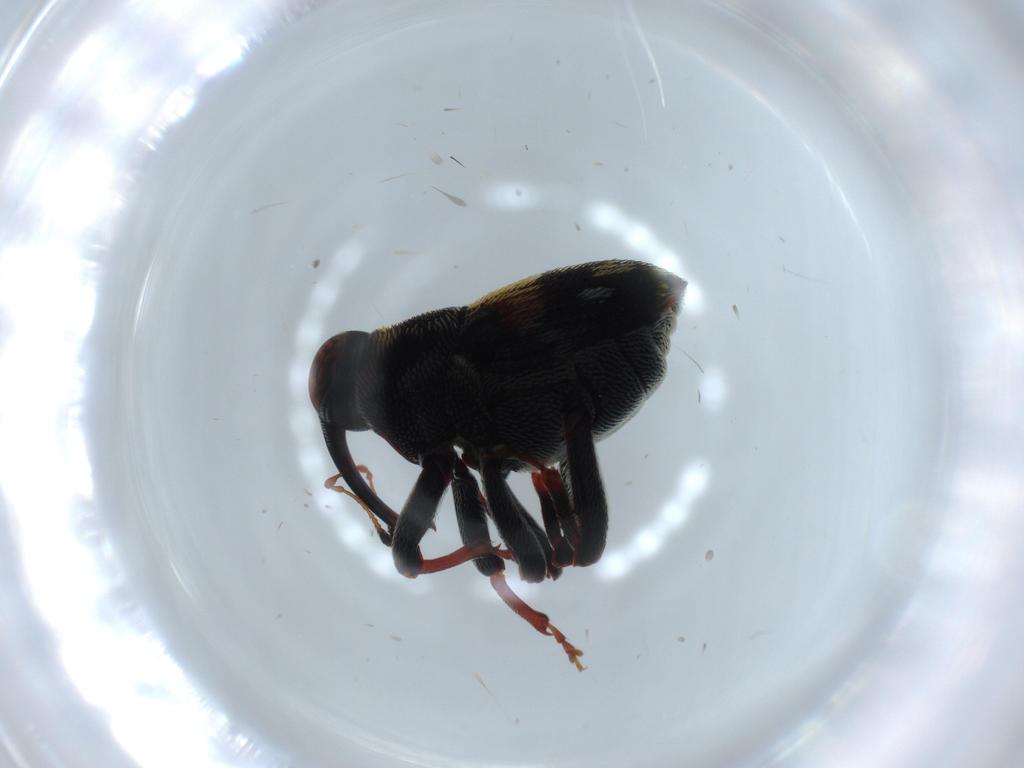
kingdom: Animalia
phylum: Arthropoda
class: Insecta
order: Coleoptera
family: Curculionidae
